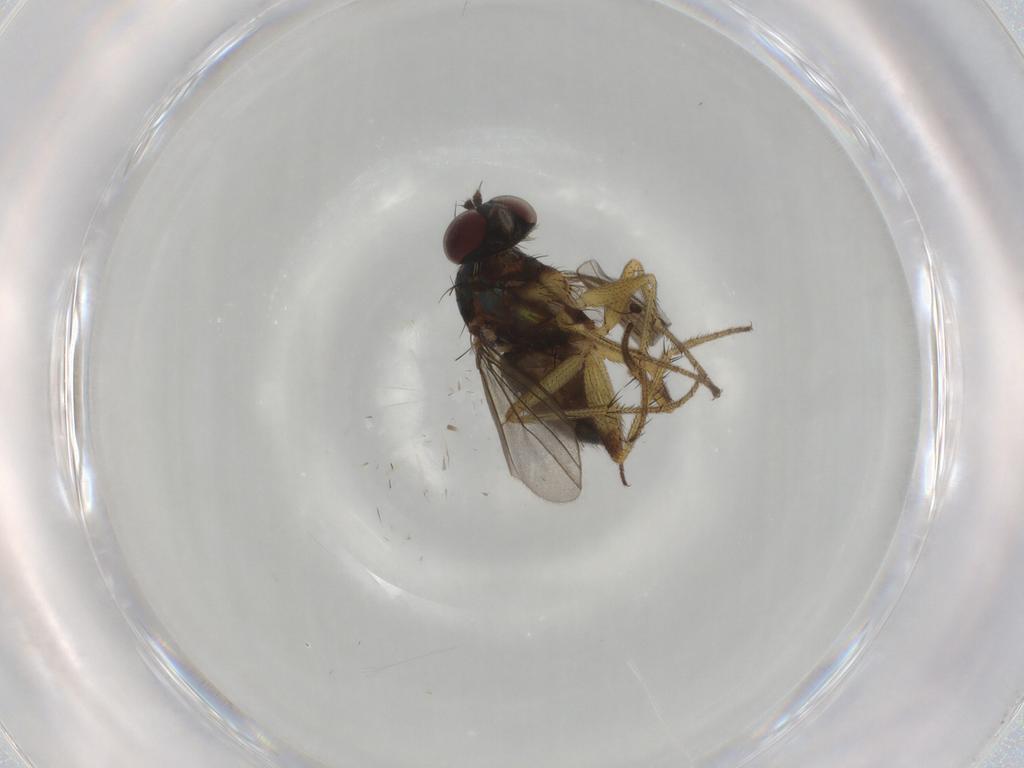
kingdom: Animalia
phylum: Arthropoda
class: Insecta
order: Diptera
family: Dolichopodidae
